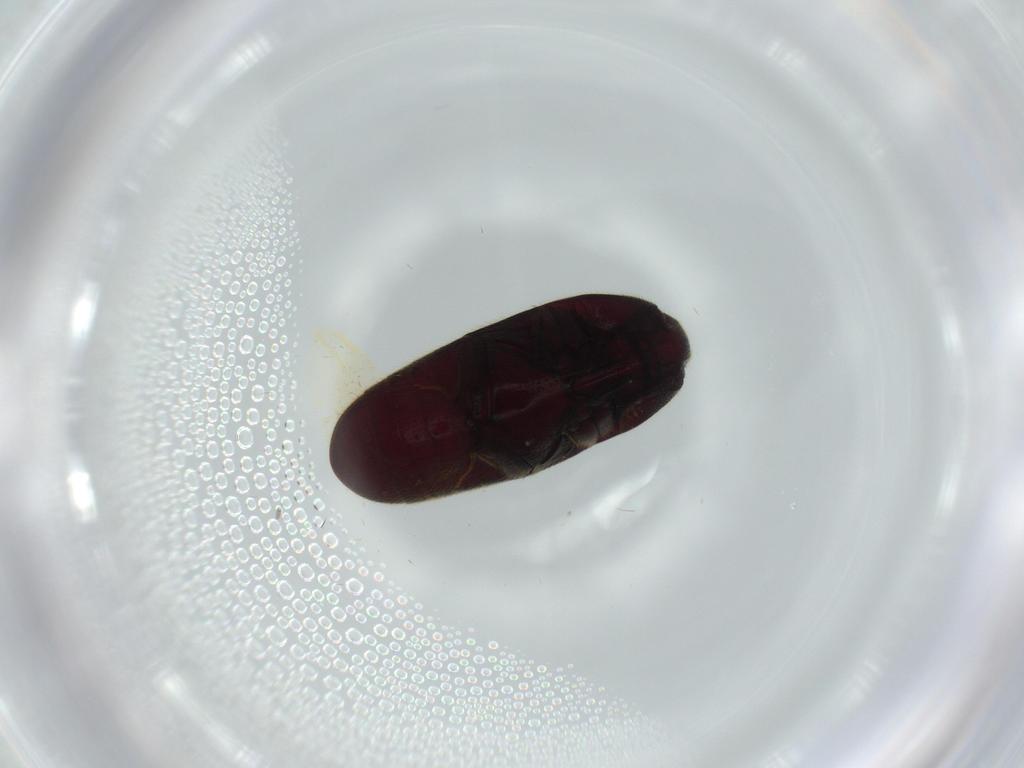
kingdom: Animalia
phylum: Arthropoda
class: Insecta
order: Coleoptera
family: Throscidae
